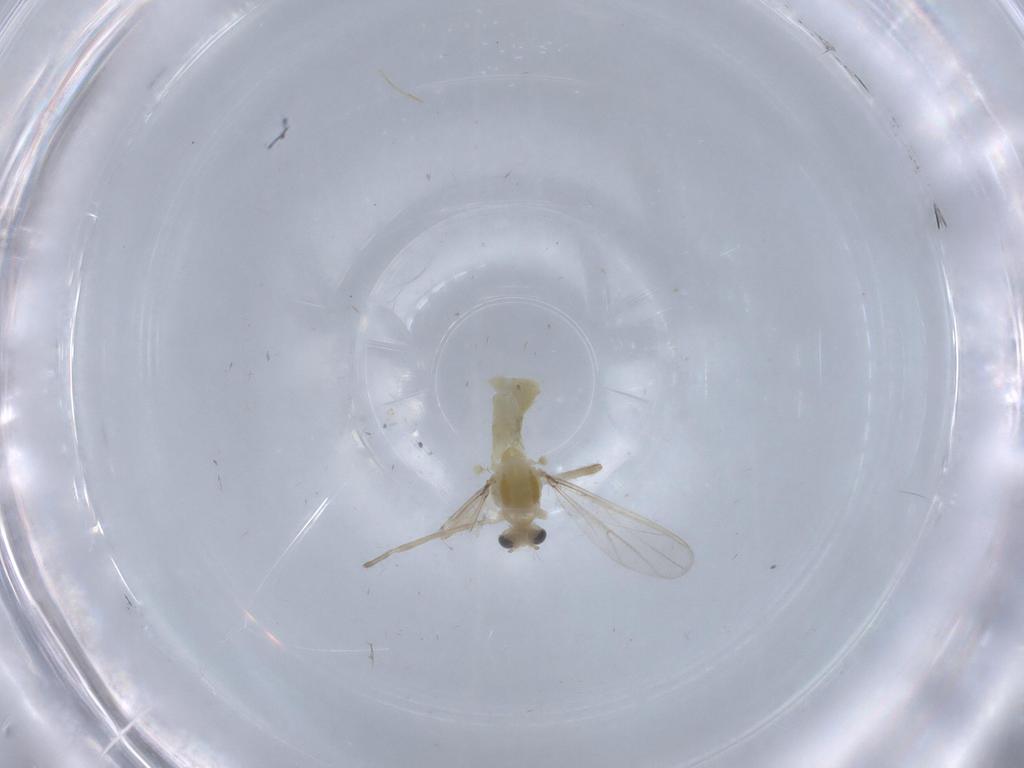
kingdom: Animalia
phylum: Arthropoda
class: Insecta
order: Diptera
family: Chironomidae
